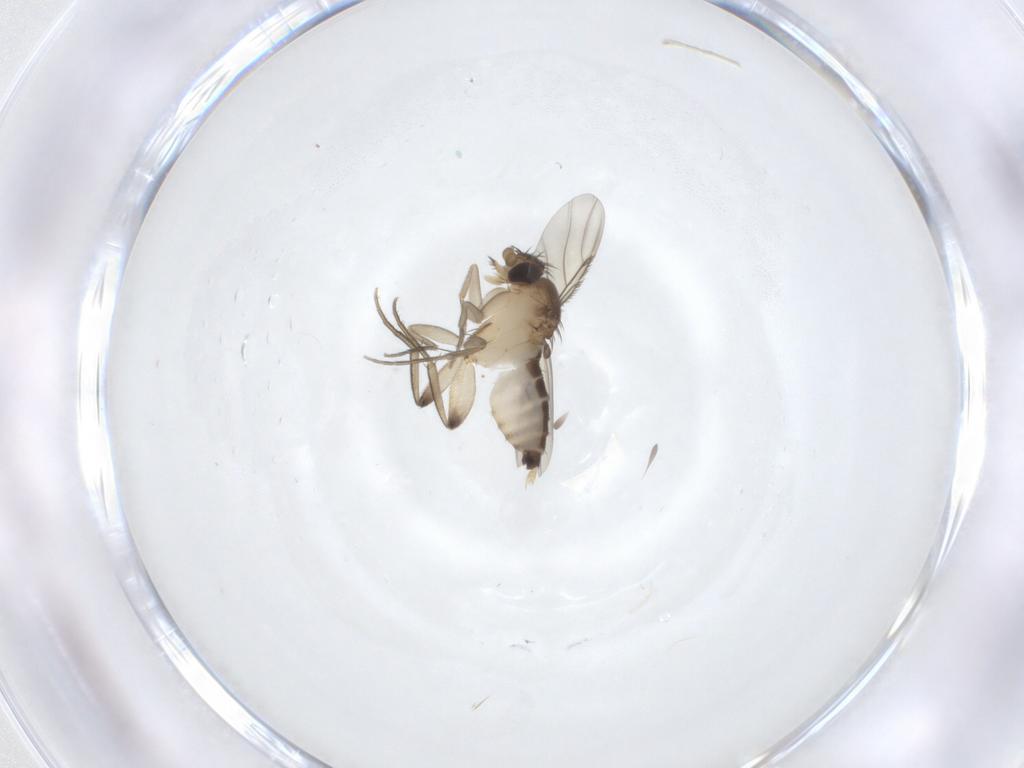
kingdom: Animalia
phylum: Arthropoda
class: Insecta
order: Diptera
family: Phoridae
